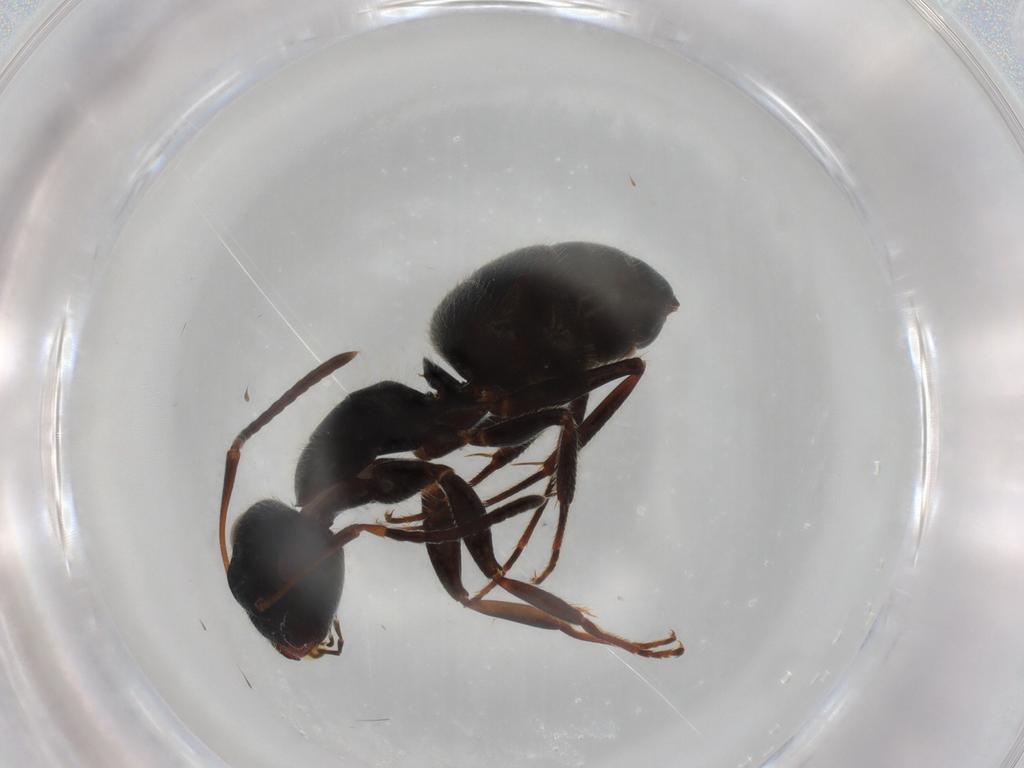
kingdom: Animalia
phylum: Arthropoda
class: Insecta
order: Hymenoptera
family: Formicidae
